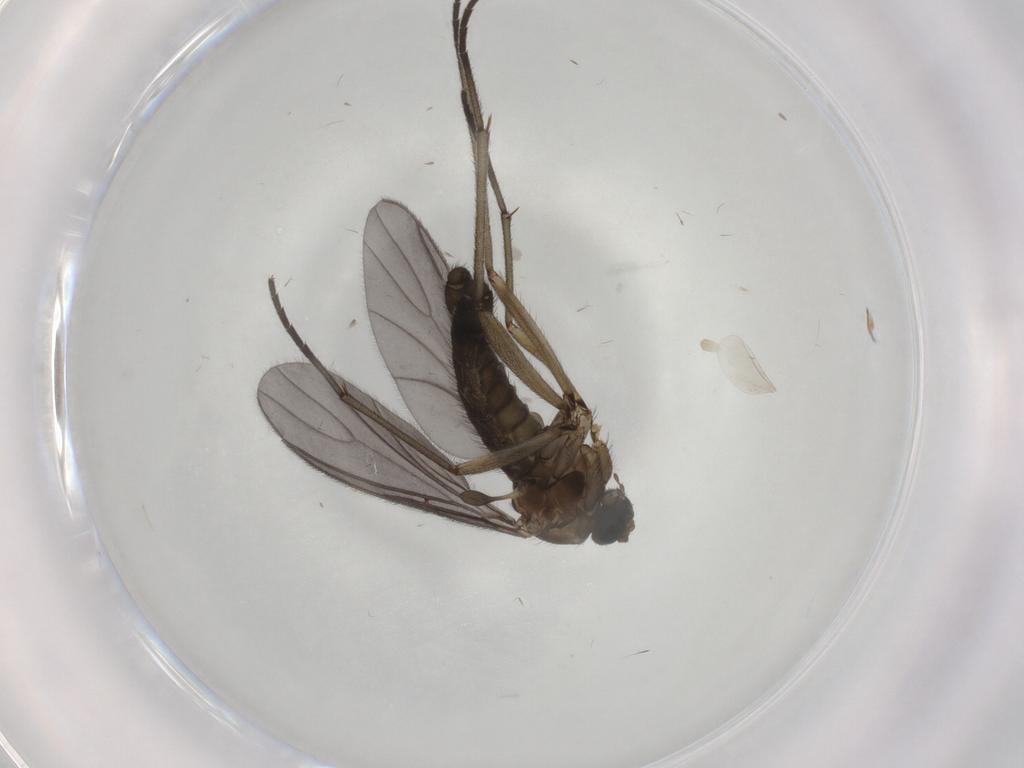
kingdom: Animalia
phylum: Arthropoda
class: Insecta
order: Diptera
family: Sciaridae
